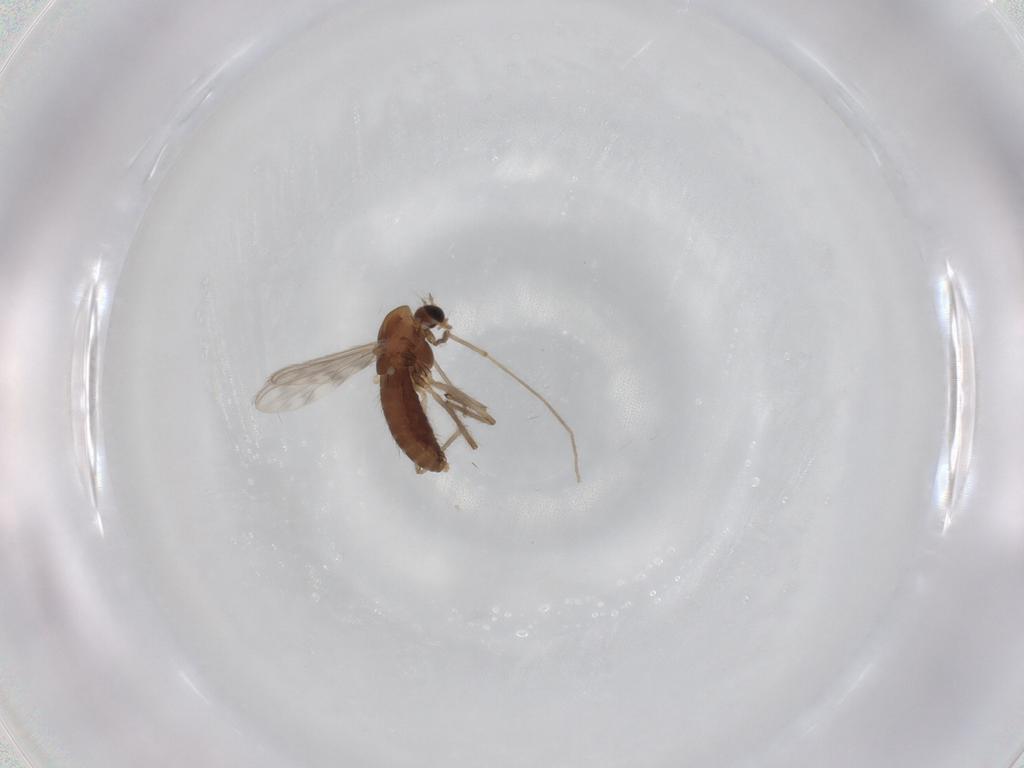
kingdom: Animalia
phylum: Arthropoda
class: Insecta
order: Diptera
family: Chironomidae
